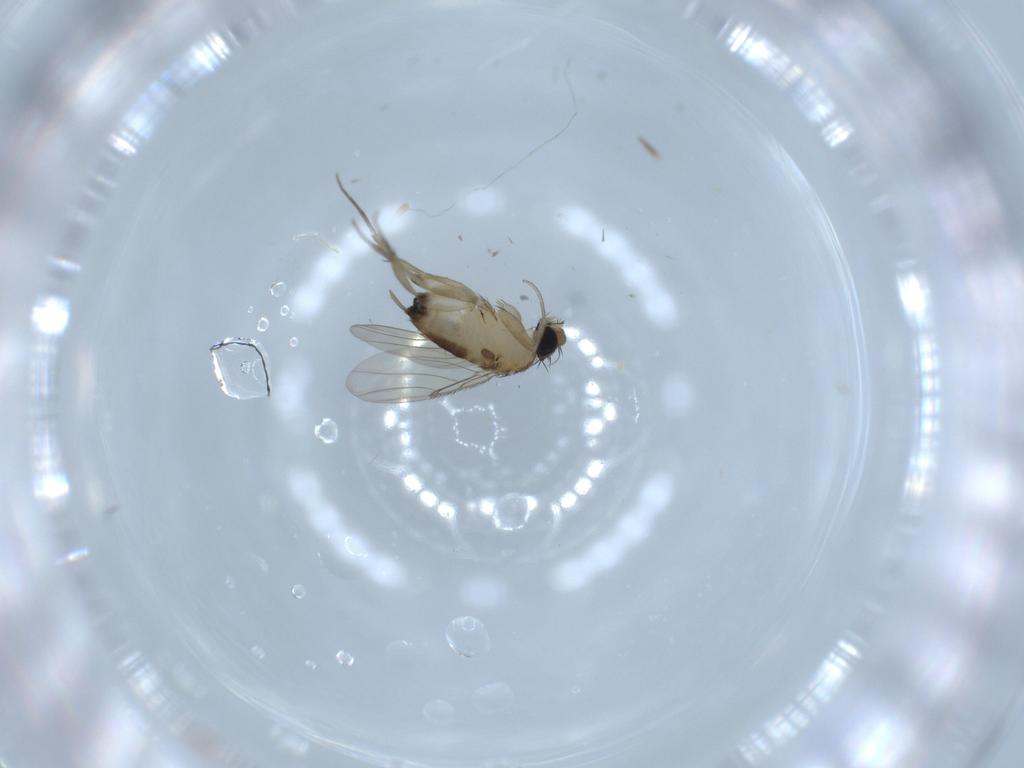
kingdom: Animalia
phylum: Arthropoda
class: Insecta
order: Diptera
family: Phoridae
